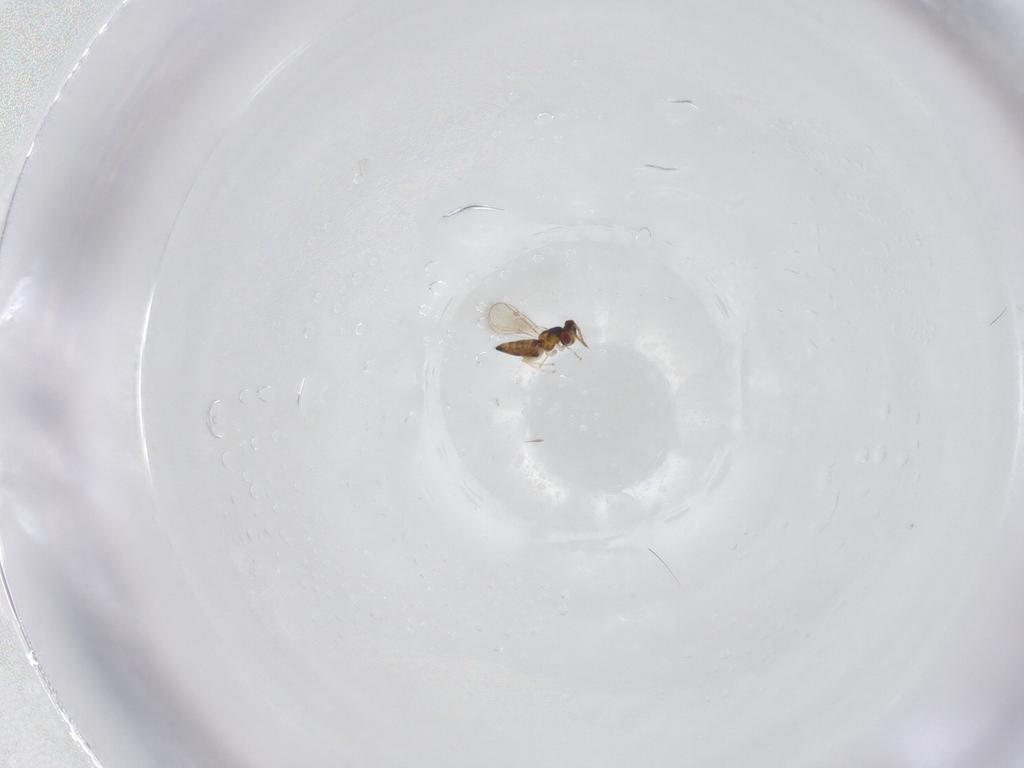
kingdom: Animalia
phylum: Arthropoda
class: Insecta
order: Hymenoptera
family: Eulophidae
